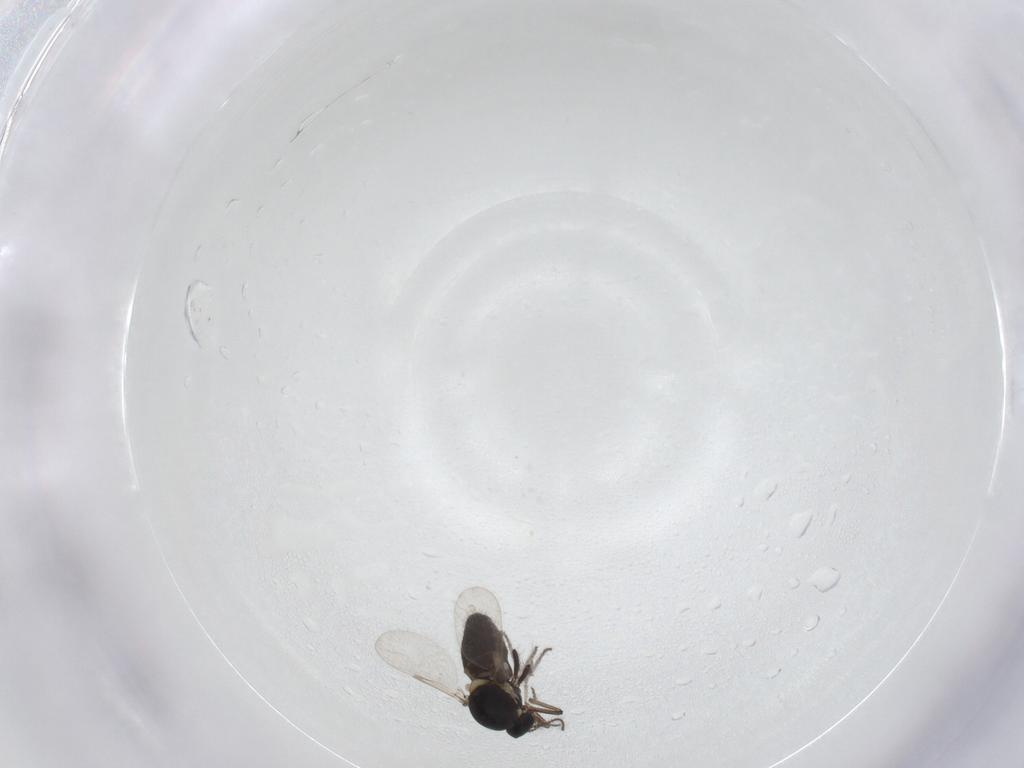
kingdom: Animalia
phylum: Arthropoda
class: Insecta
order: Diptera
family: Ceratopogonidae
